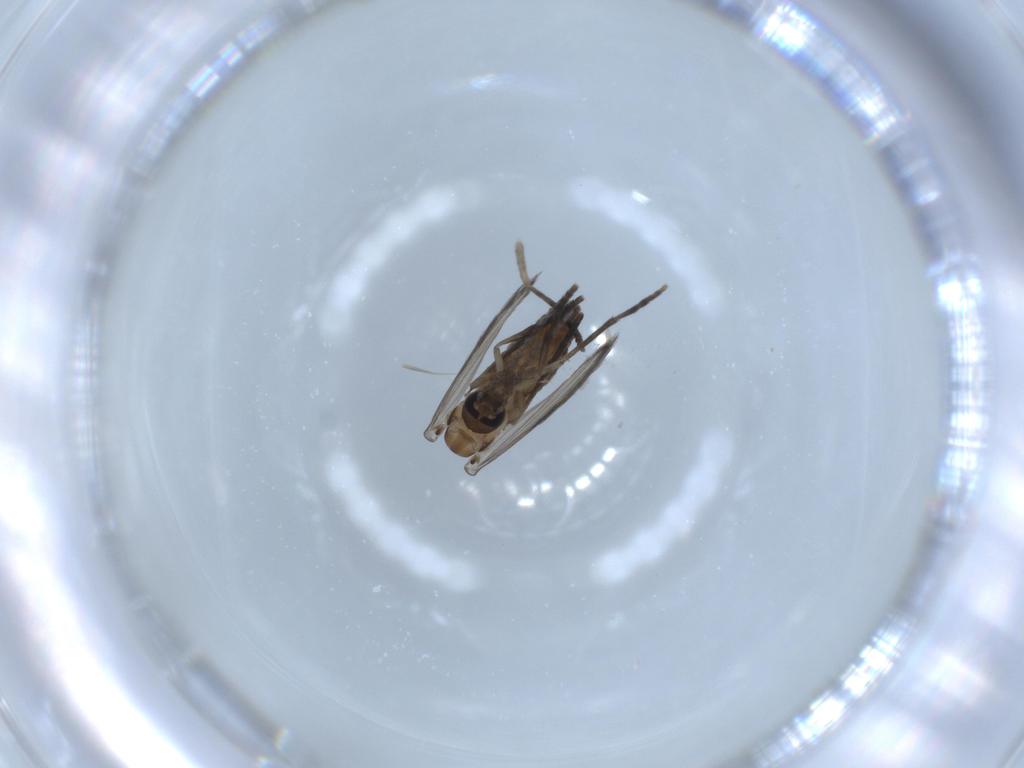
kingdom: Animalia
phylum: Arthropoda
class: Insecta
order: Diptera
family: Psychodidae
